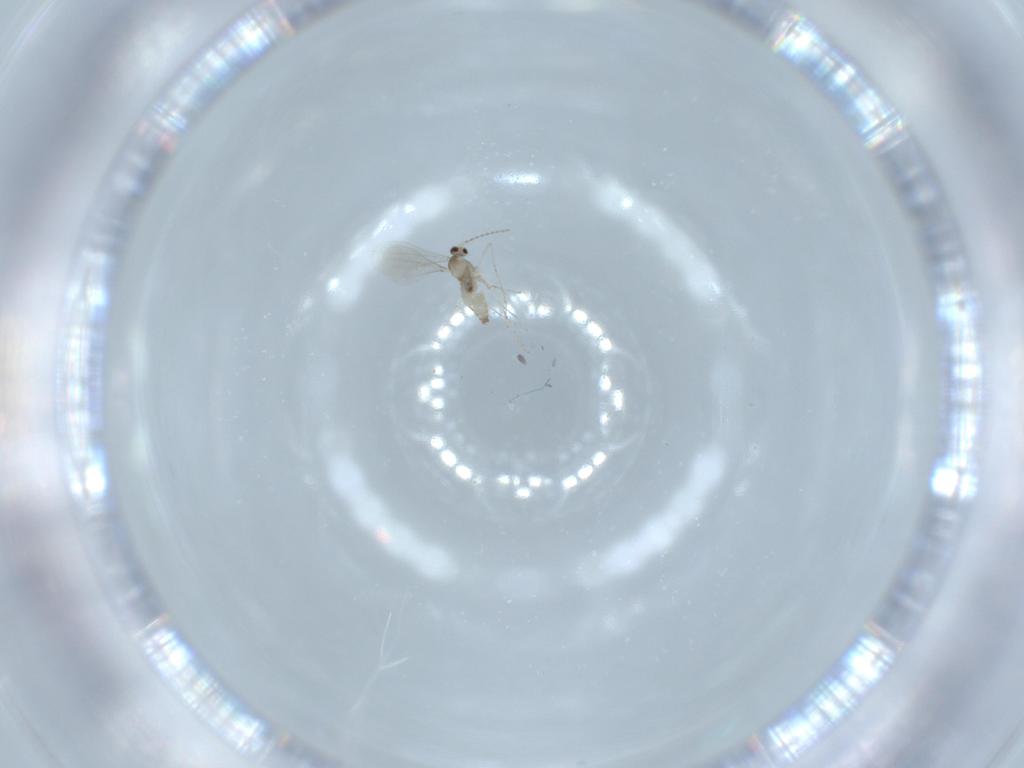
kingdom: Animalia
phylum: Arthropoda
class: Insecta
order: Diptera
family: Cecidomyiidae
